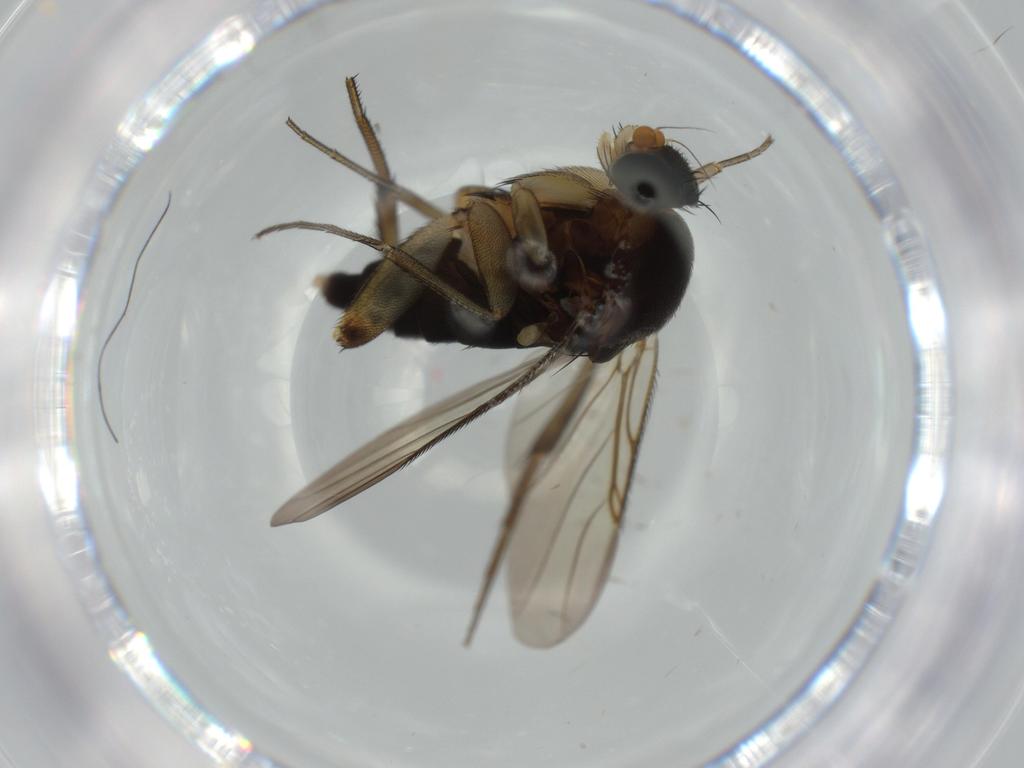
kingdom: Animalia
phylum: Arthropoda
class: Insecta
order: Diptera
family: Phoridae
